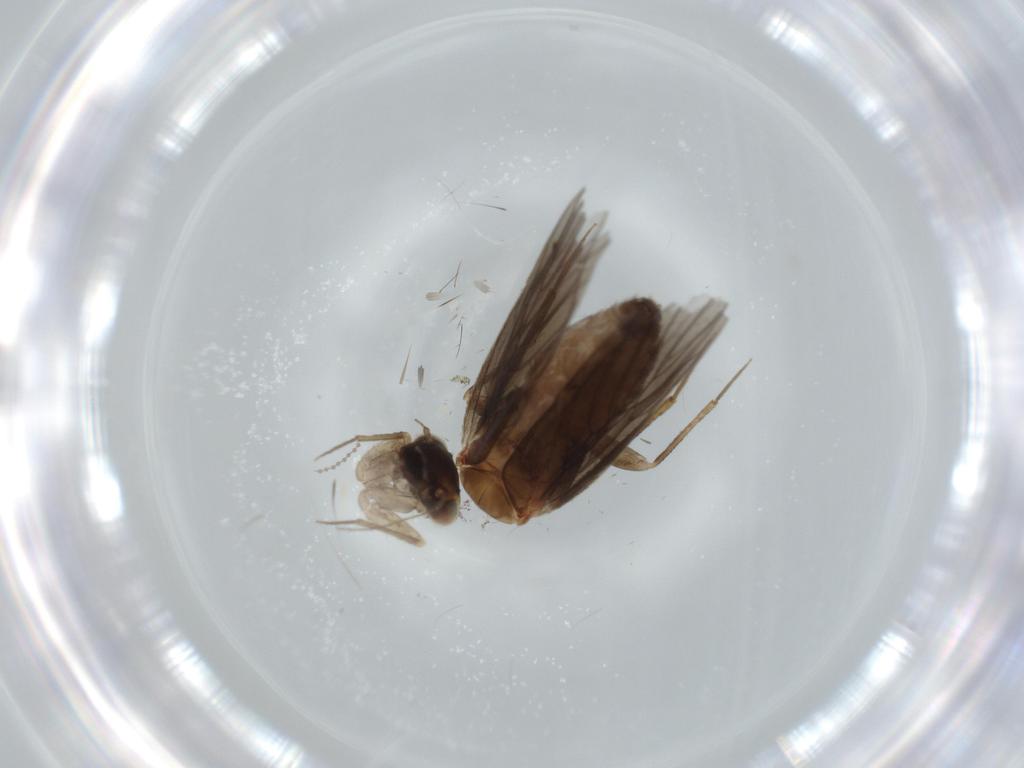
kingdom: Animalia
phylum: Arthropoda
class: Insecta
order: Psocodea
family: Lepidopsocidae
